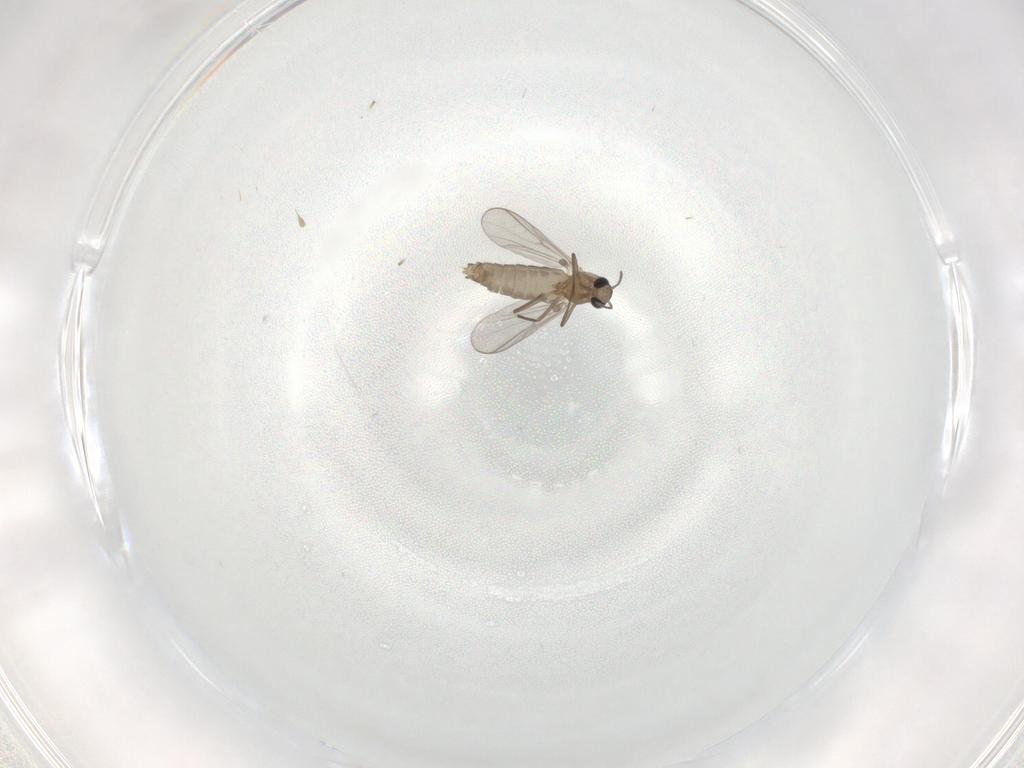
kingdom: Animalia
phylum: Arthropoda
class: Insecta
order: Diptera
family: Chironomidae
